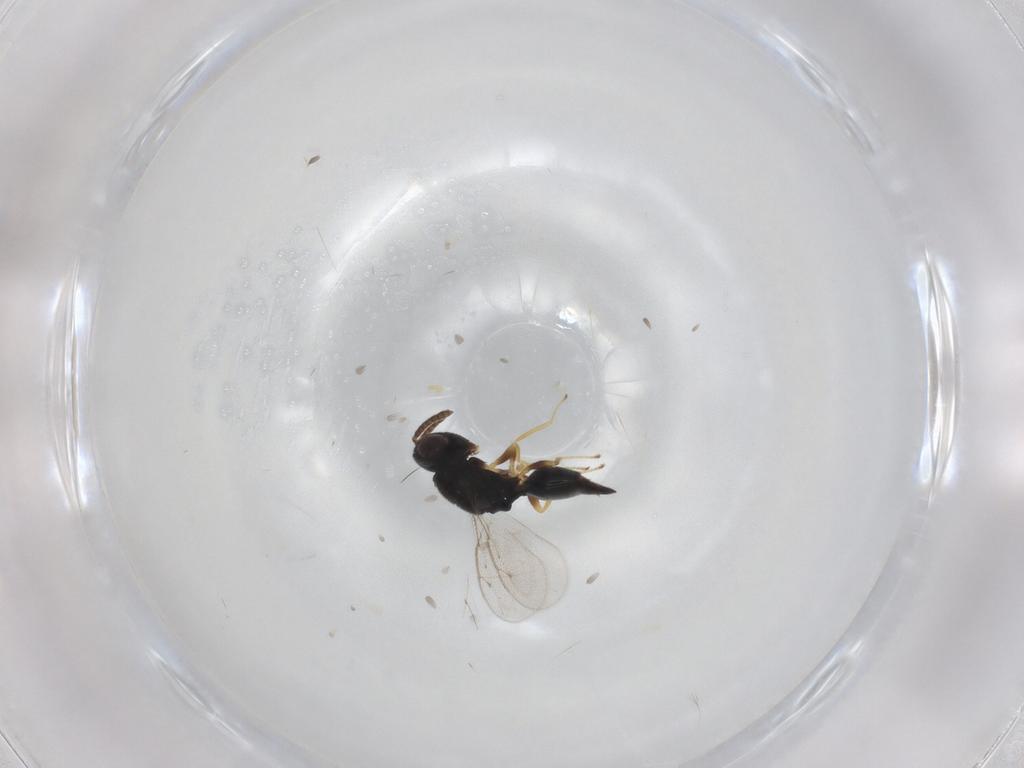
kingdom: Animalia
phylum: Arthropoda
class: Insecta
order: Hymenoptera
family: Pteromalidae
